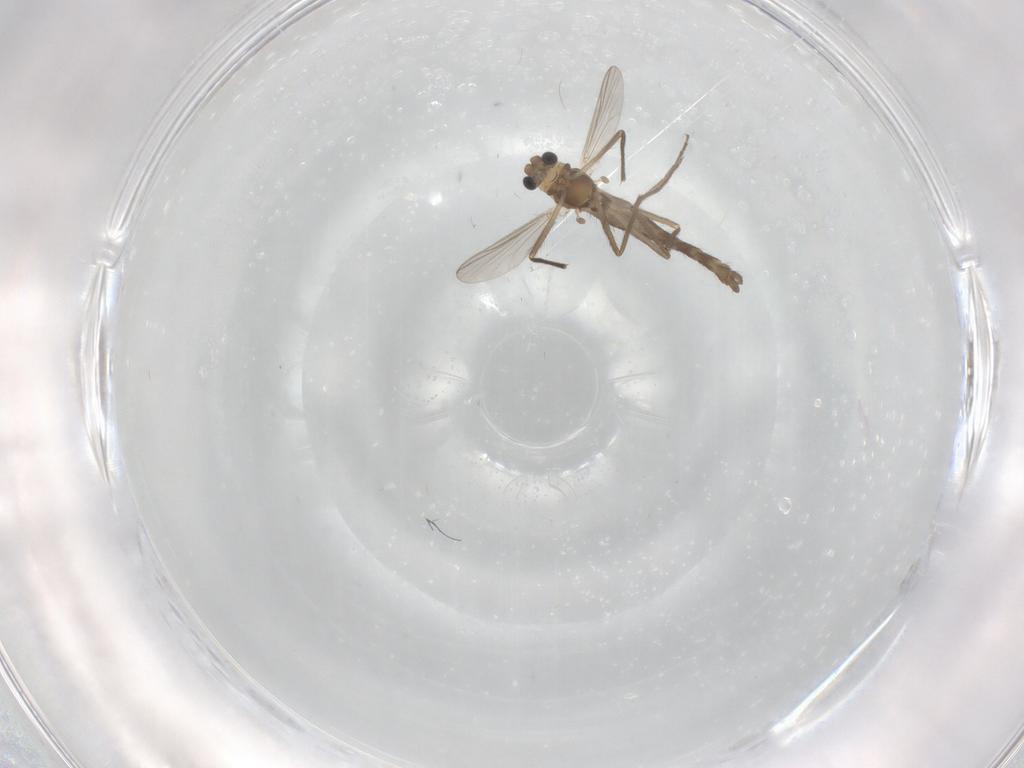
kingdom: Animalia
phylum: Arthropoda
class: Insecta
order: Diptera
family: Chironomidae
